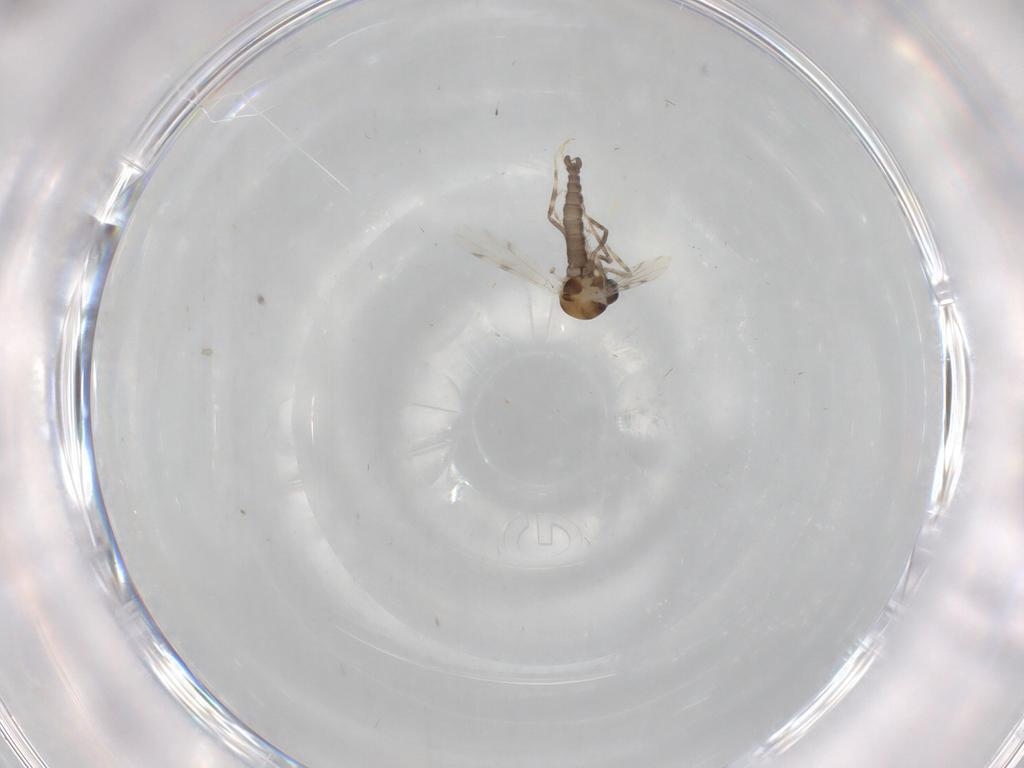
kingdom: Animalia
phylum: Arthropoda
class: Insecta
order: Diptera
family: Ceratopogonidae
